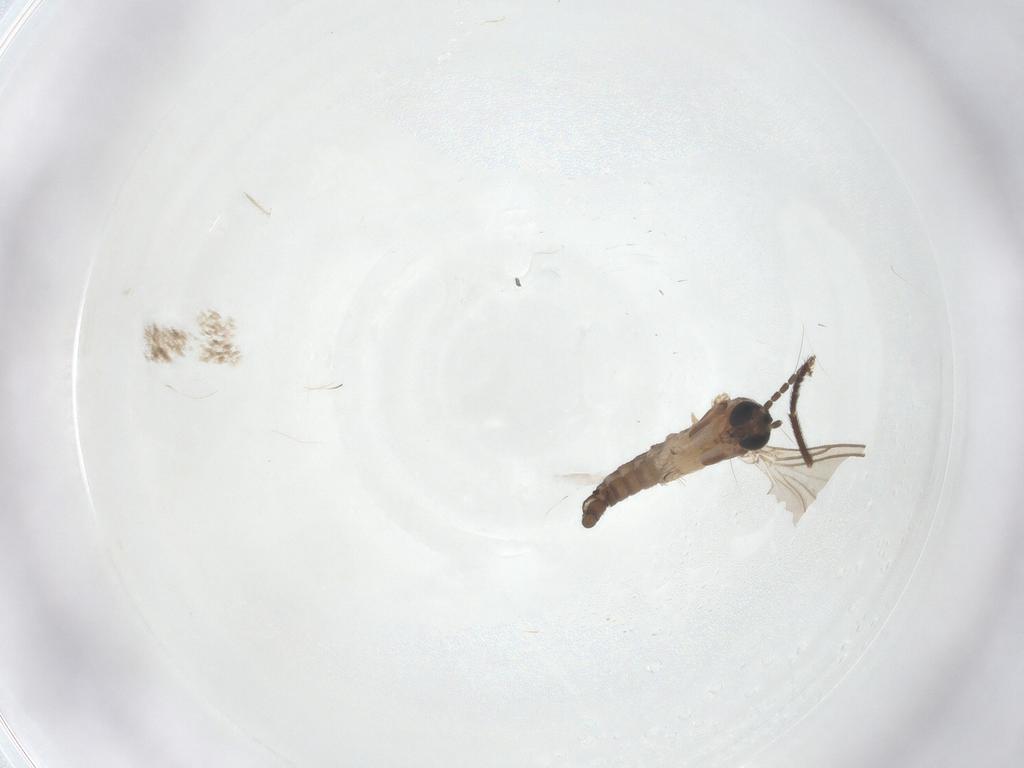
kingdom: Animalia
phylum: Arthropoda
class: Insecta
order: Diptera
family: Sciaridae
